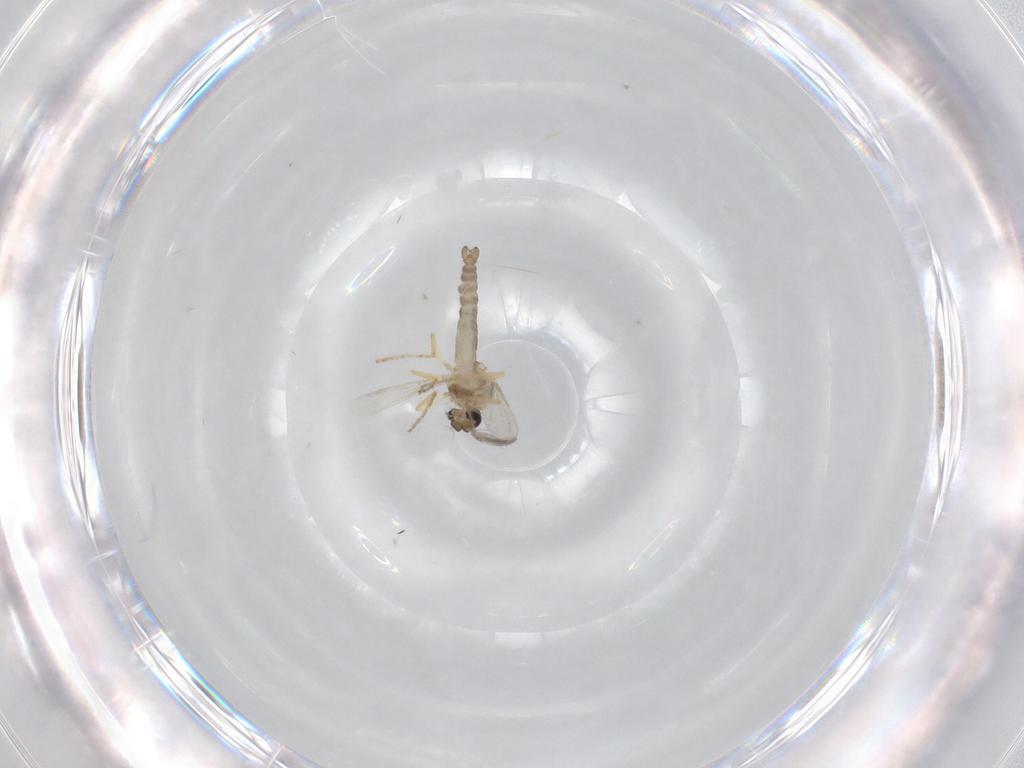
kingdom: Animalia
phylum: Arthropoda
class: Insecta
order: Diptera
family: Ceratopogonidae
